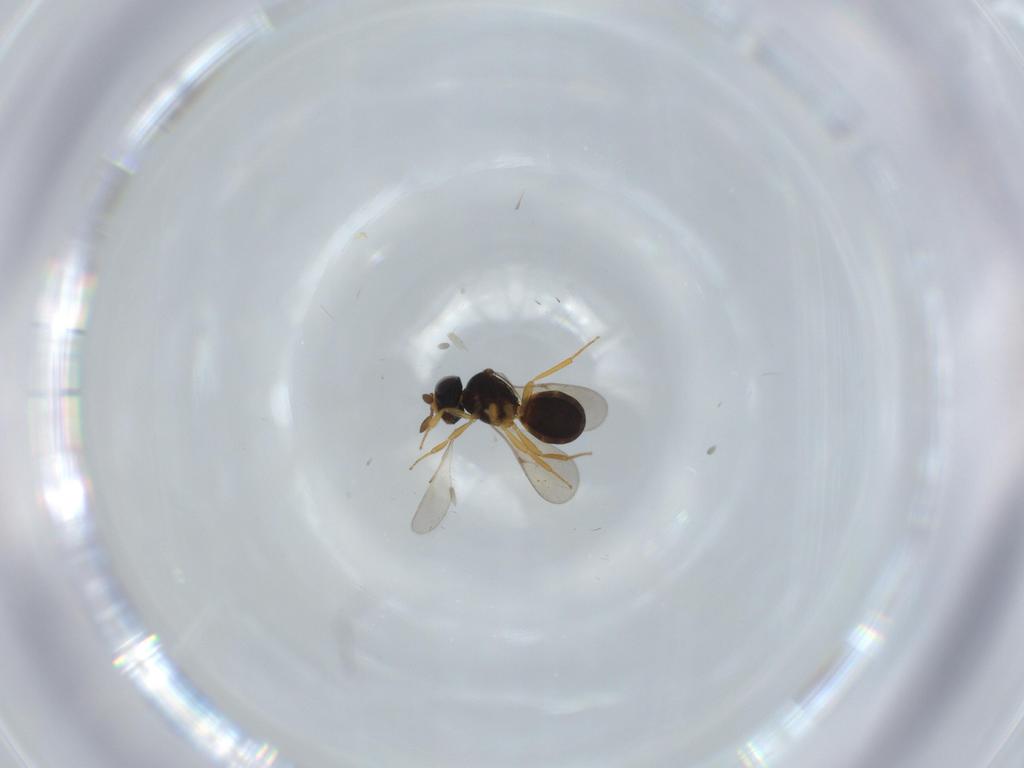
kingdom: Animalia
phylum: Arthropoda
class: Insecta
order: Hymenoptera
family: Scelionidae
